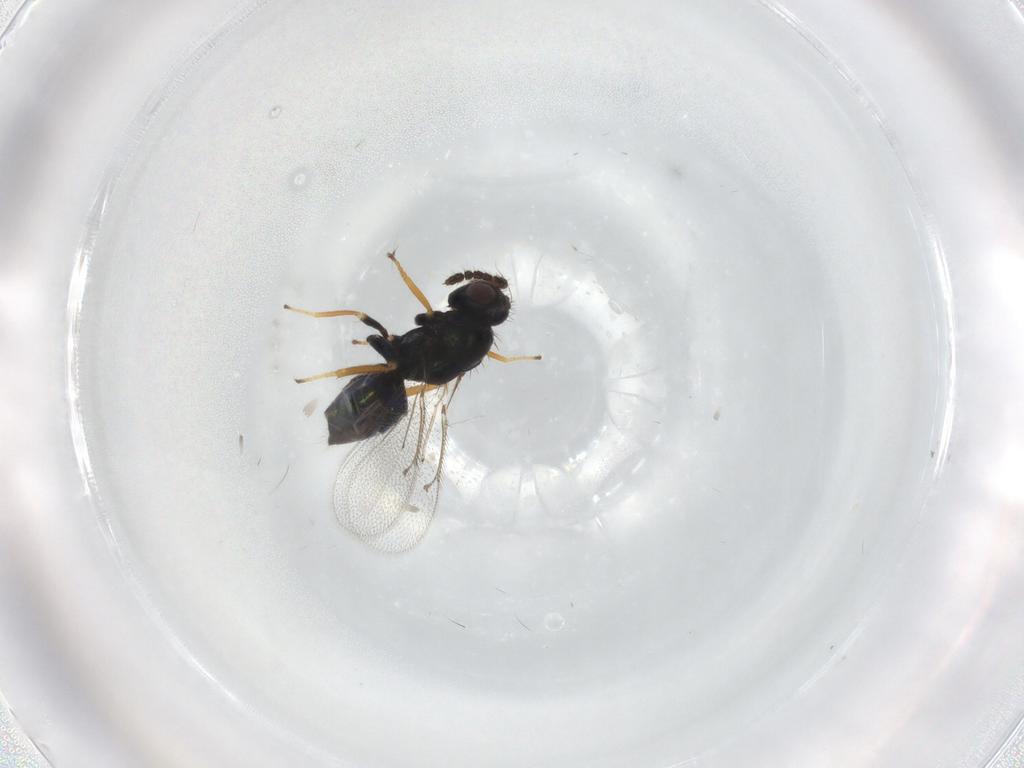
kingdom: Animalia
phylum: Arthropoda
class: Insecta
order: Hymenoptera
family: Eulophidae
